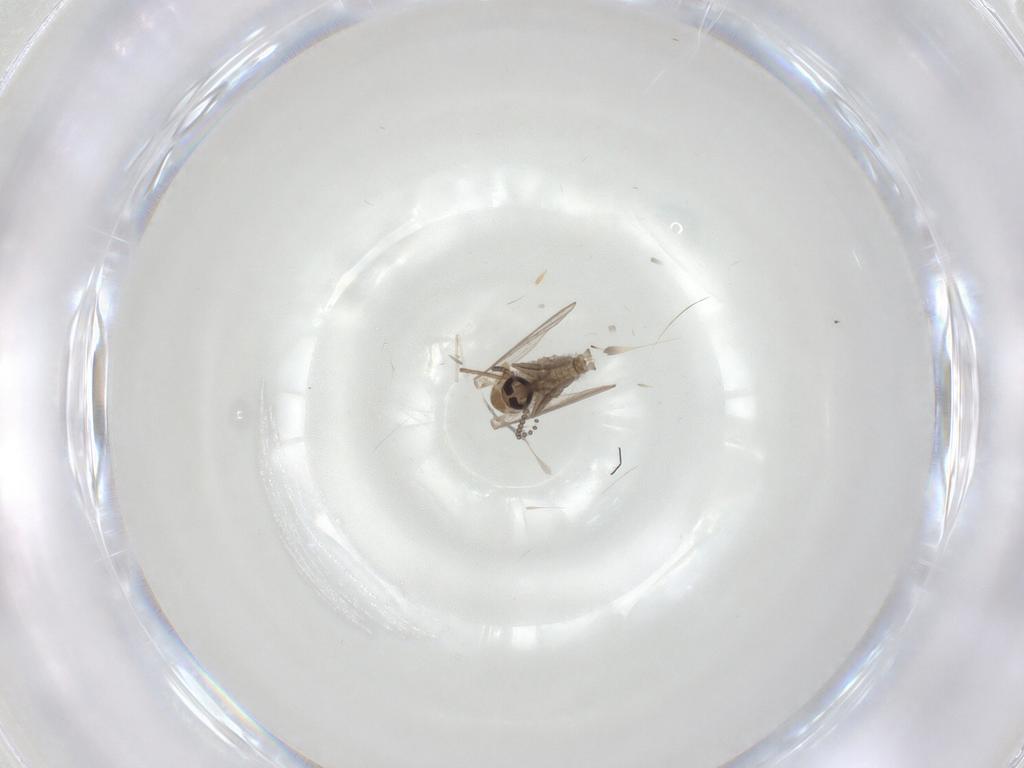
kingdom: Animalia
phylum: Arthropoda
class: Insecta
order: Diptera
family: Psychodidae
